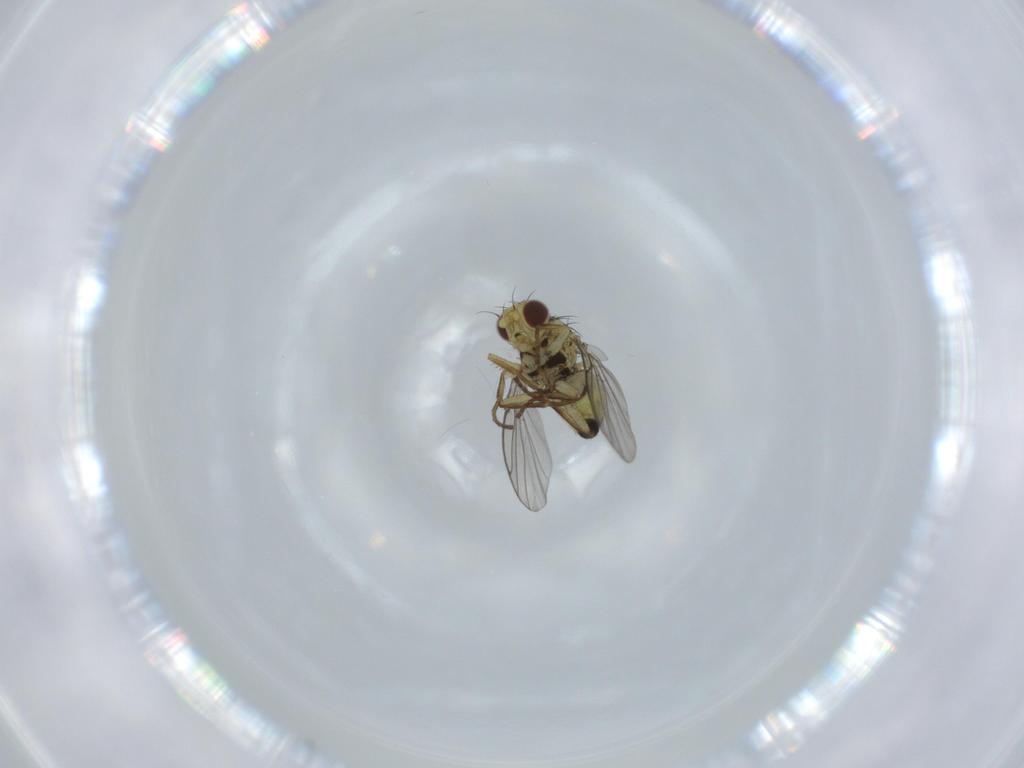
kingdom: Animalia
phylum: Arthropoda
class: Insecta
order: Diptera
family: Agromyzidae
